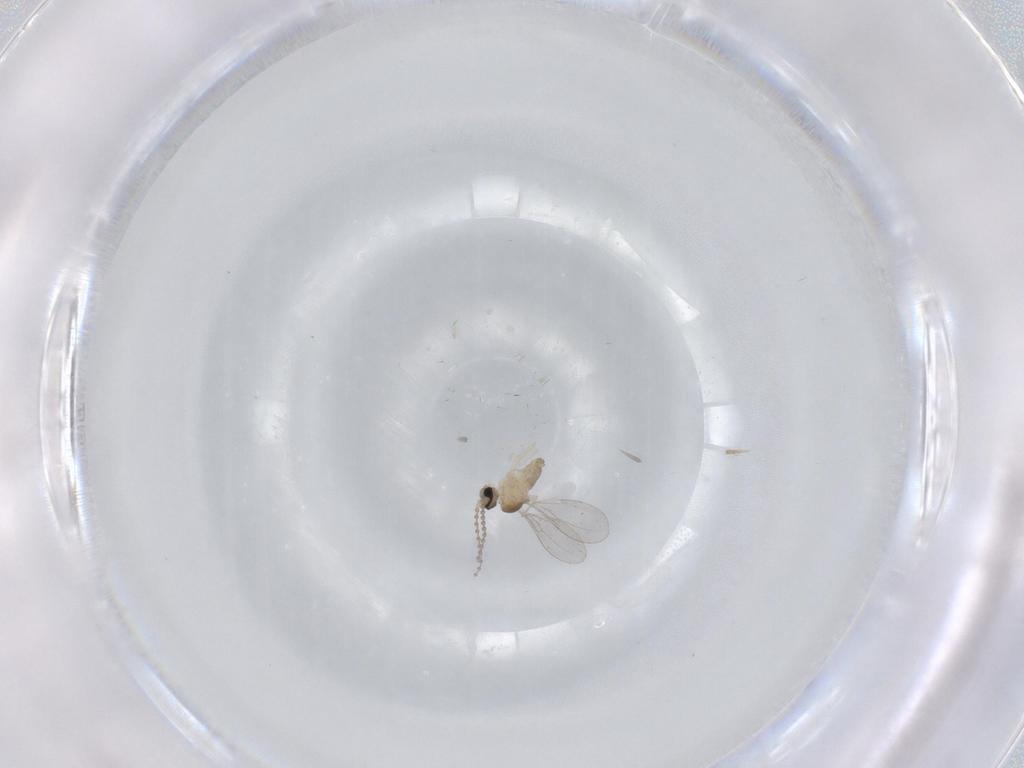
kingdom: Animalia
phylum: Arthropoda
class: Insecta
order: Diptera
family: Cecidomyiidae
